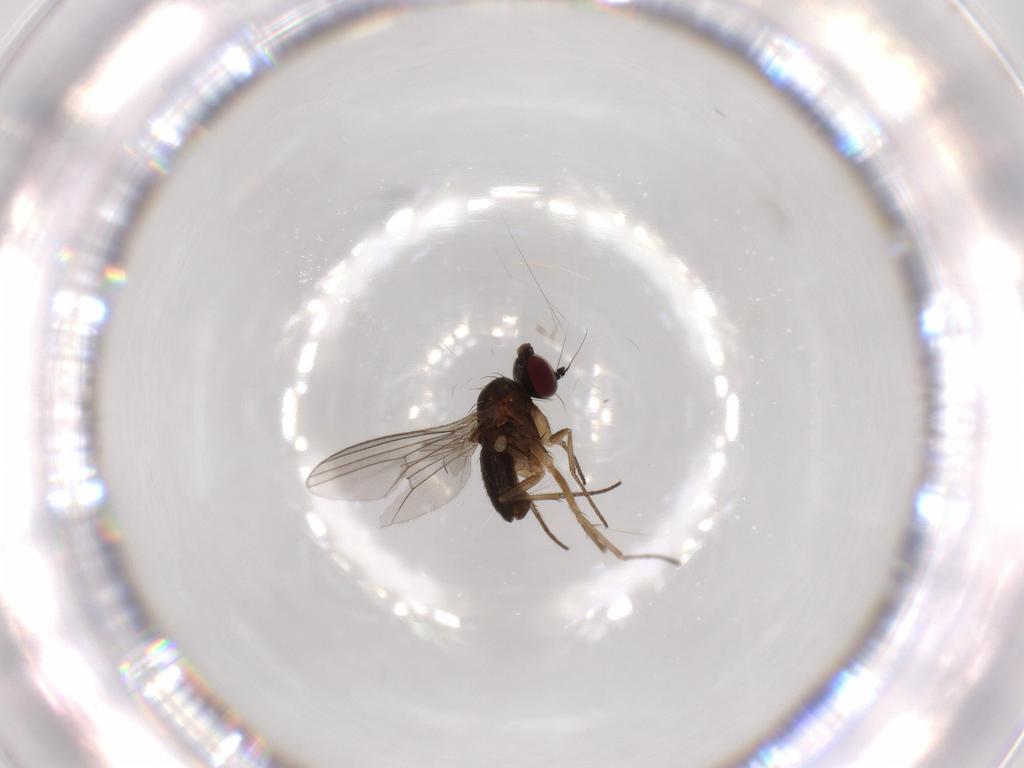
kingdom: Animalia
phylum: Arthropoda
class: Insecta
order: Diptera
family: Dolichopodidae
